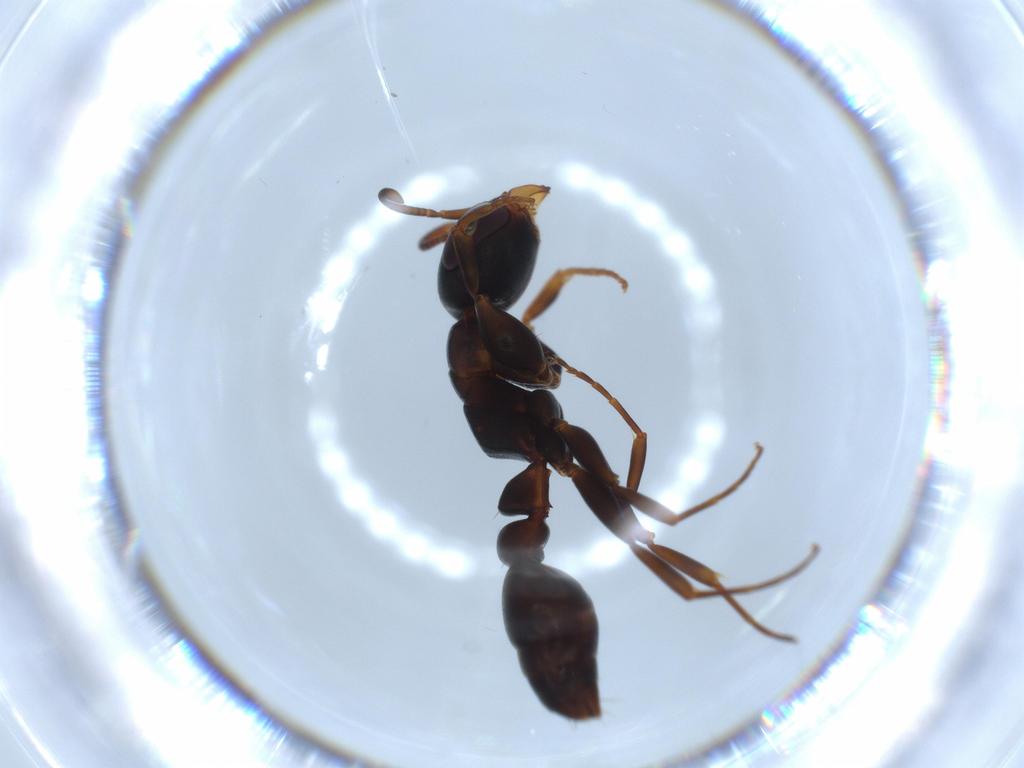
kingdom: Animalia
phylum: Arthropoda
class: Insecta
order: Hymenoptera
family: Formicidae
